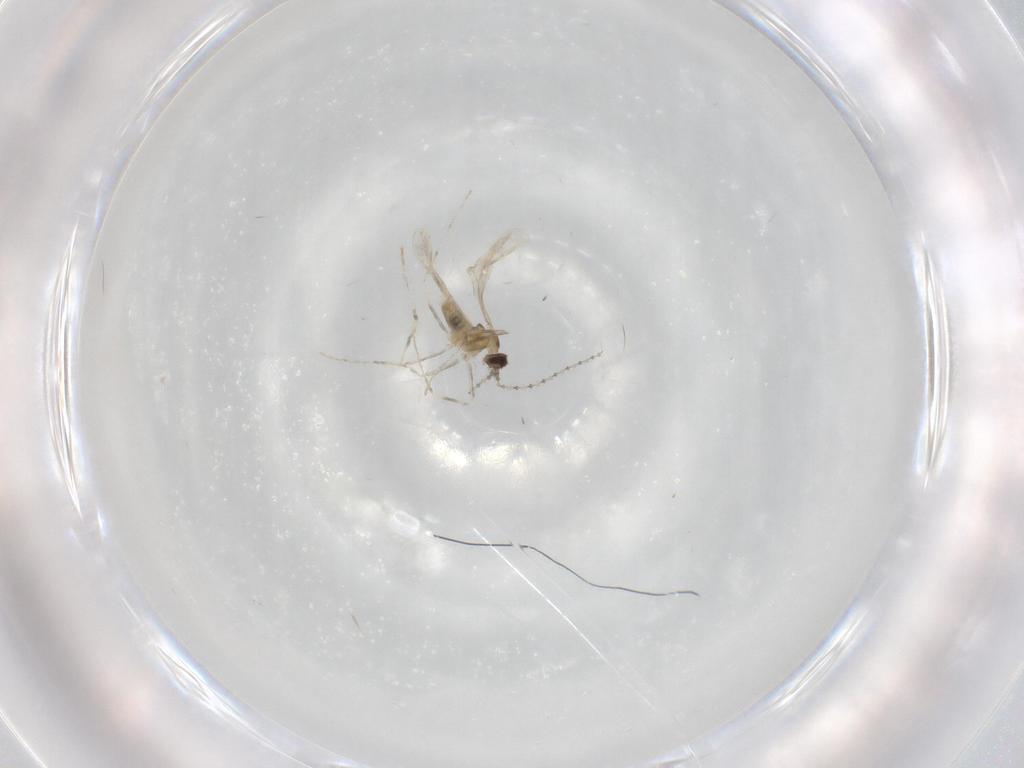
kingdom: Animalia
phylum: Arthropoda
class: Insecta
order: Diptera
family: Cecidomyiidae
